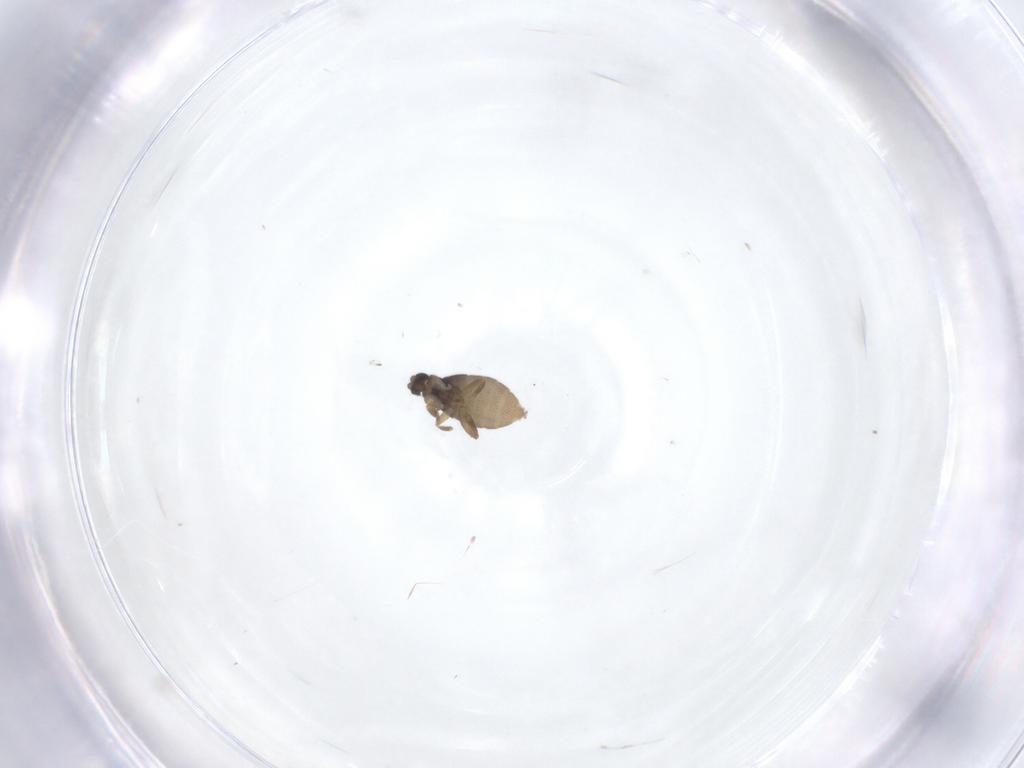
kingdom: Animalia
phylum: Arthropoda
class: Insecta
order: Diptera
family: Phoridae
